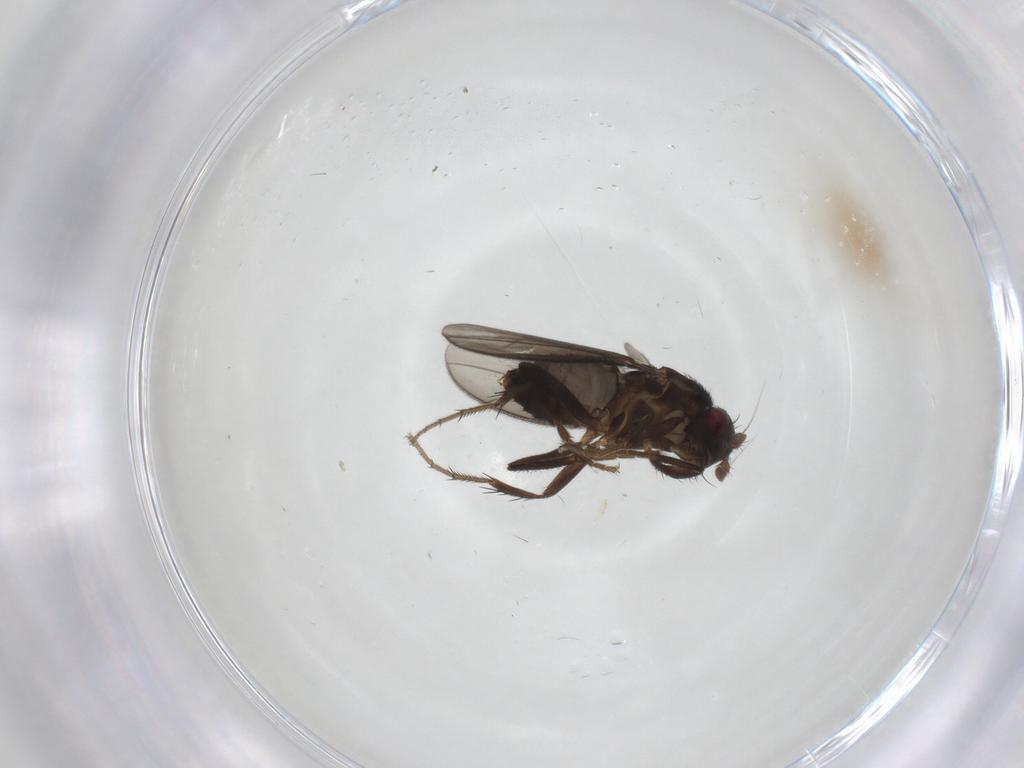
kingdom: Animalia
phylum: Arthropoda
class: Insecta
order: Diptera
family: Sphaeroceridae
